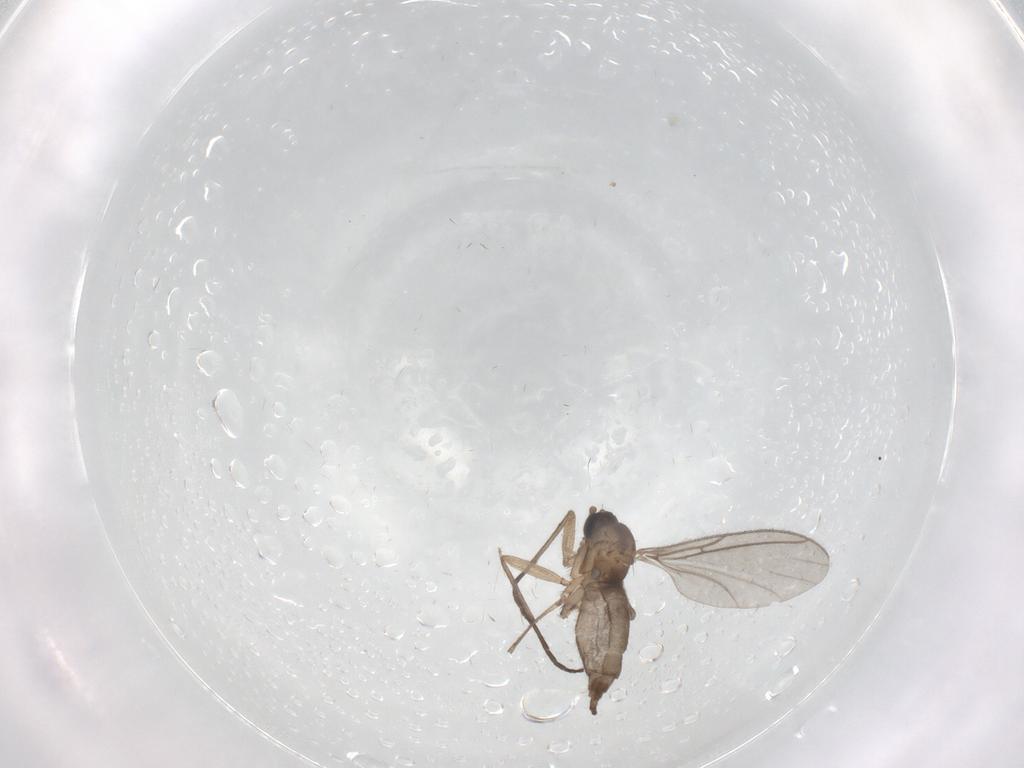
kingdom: Animalia
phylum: Arthropoda
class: Insecta
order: Diptera
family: Sciaridae
